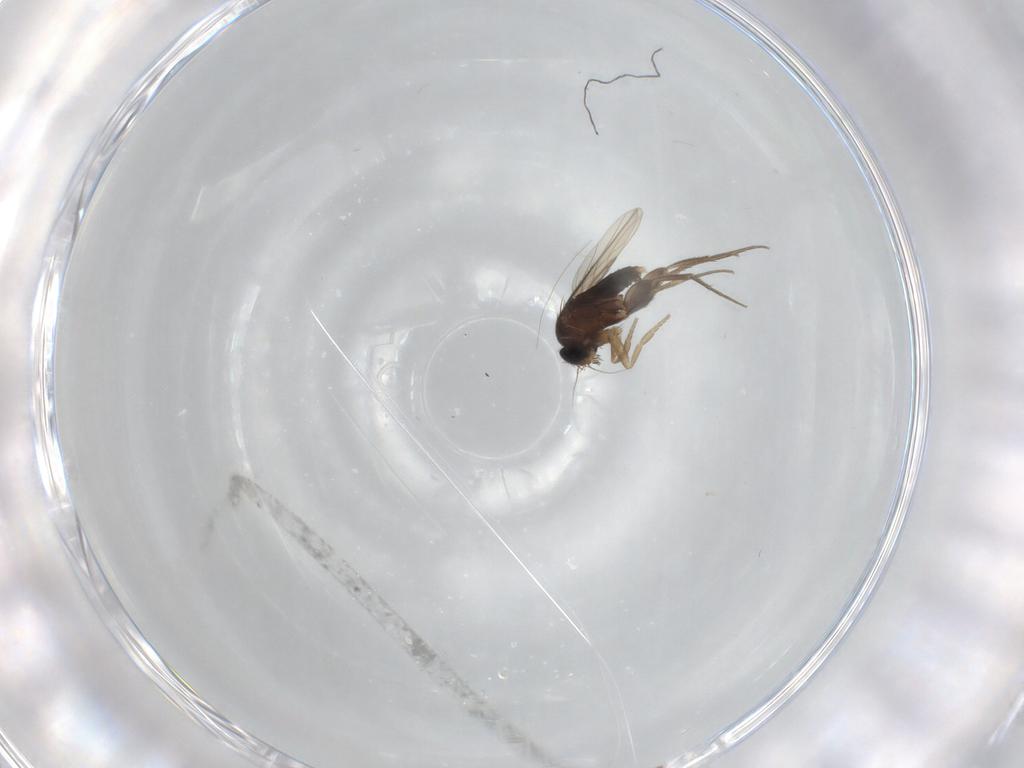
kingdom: Animalia
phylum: Arthropoda
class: Insecta
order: Diptera
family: Phoridae
